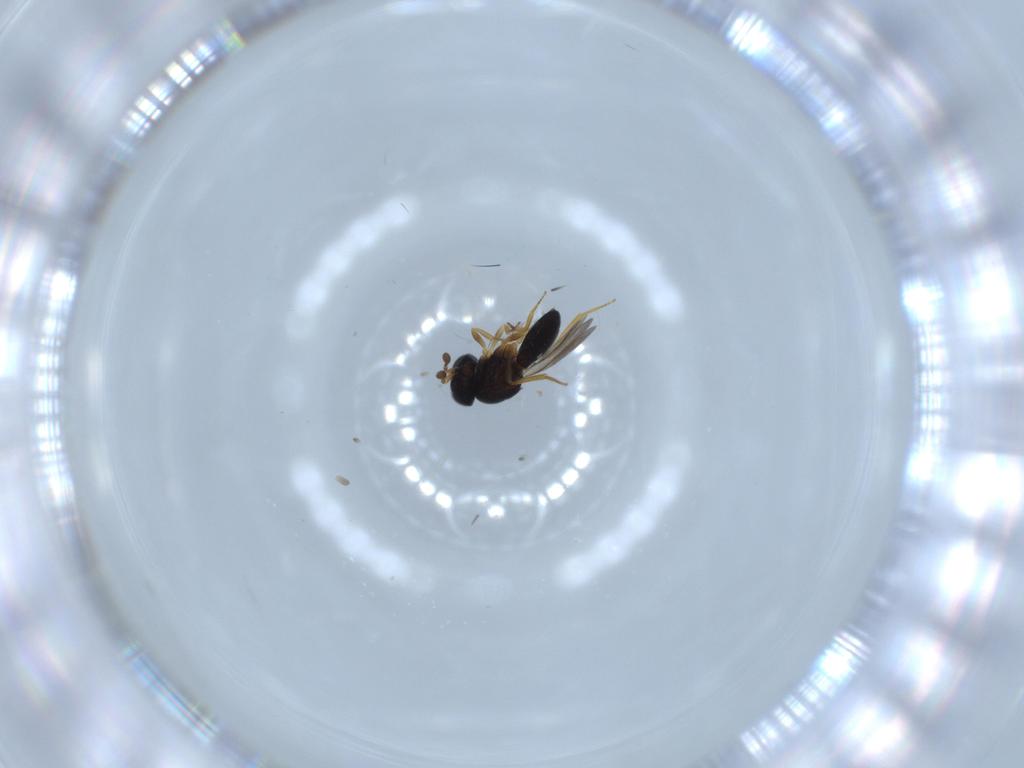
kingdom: Animalia
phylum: Arthropoda
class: Insecta
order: Hymenoptera
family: Scelionidae
